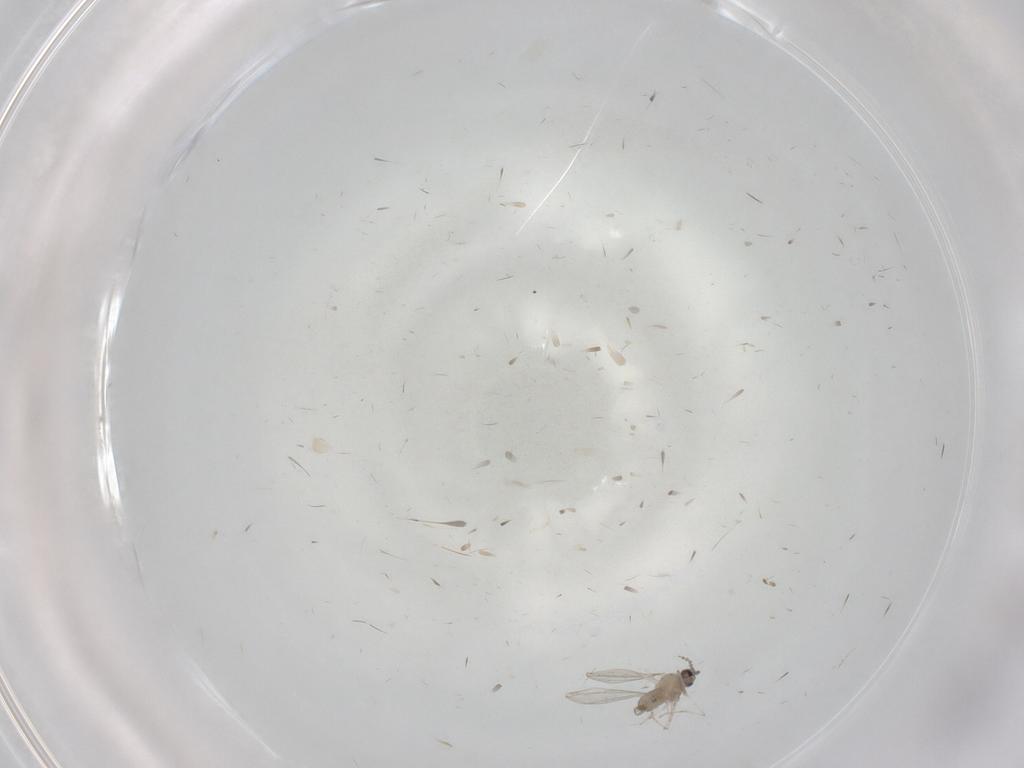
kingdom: Animalia
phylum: Arthropoda
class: Insecta
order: Diptera
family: Cecidomyiidae
